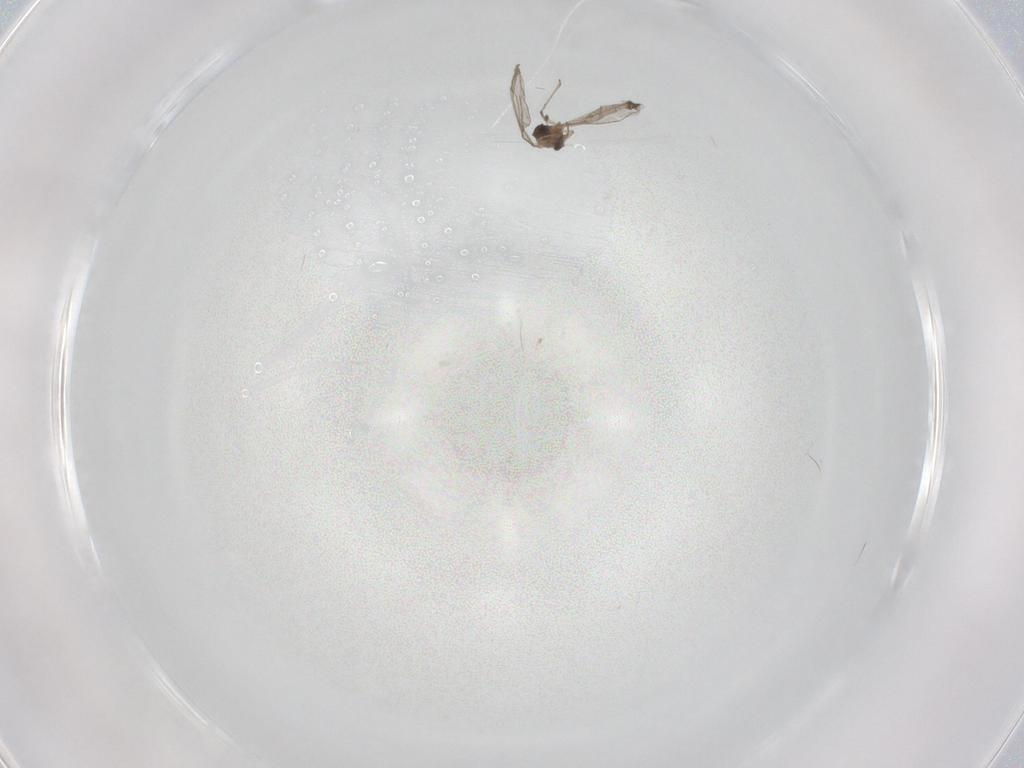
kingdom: Animalia
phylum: Arthropoda
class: Insecta
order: Diptera
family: Cecidomyiidae
